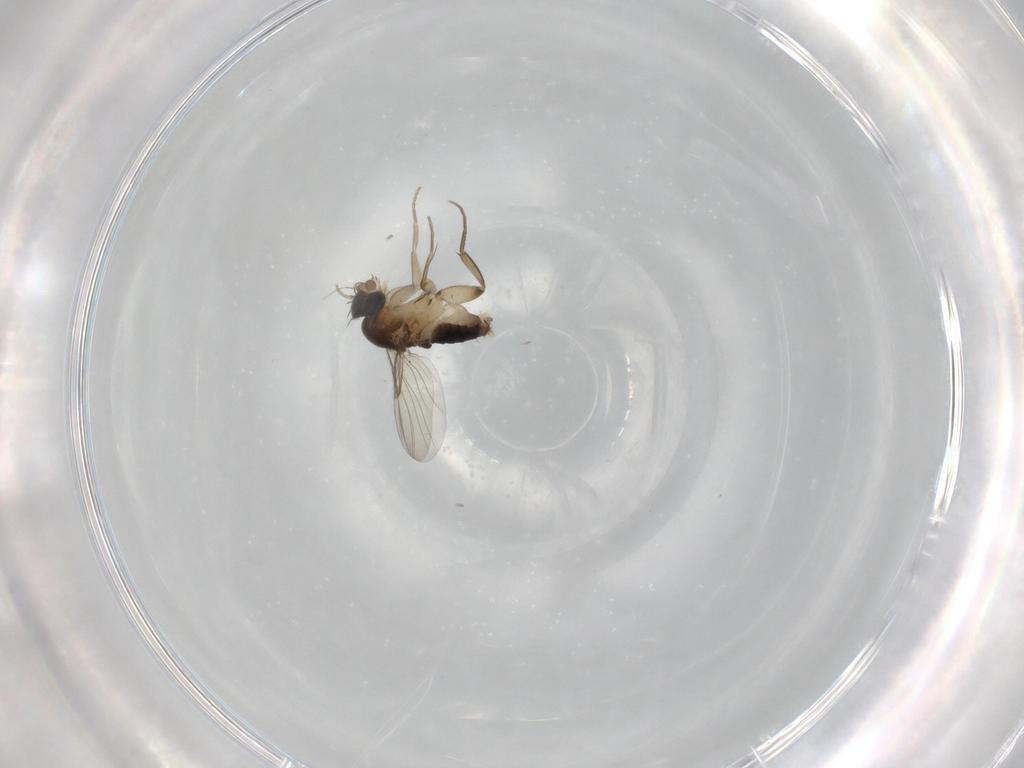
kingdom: Animalia
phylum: Arthropoda
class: Insecta
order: Diptera
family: Phoridae
